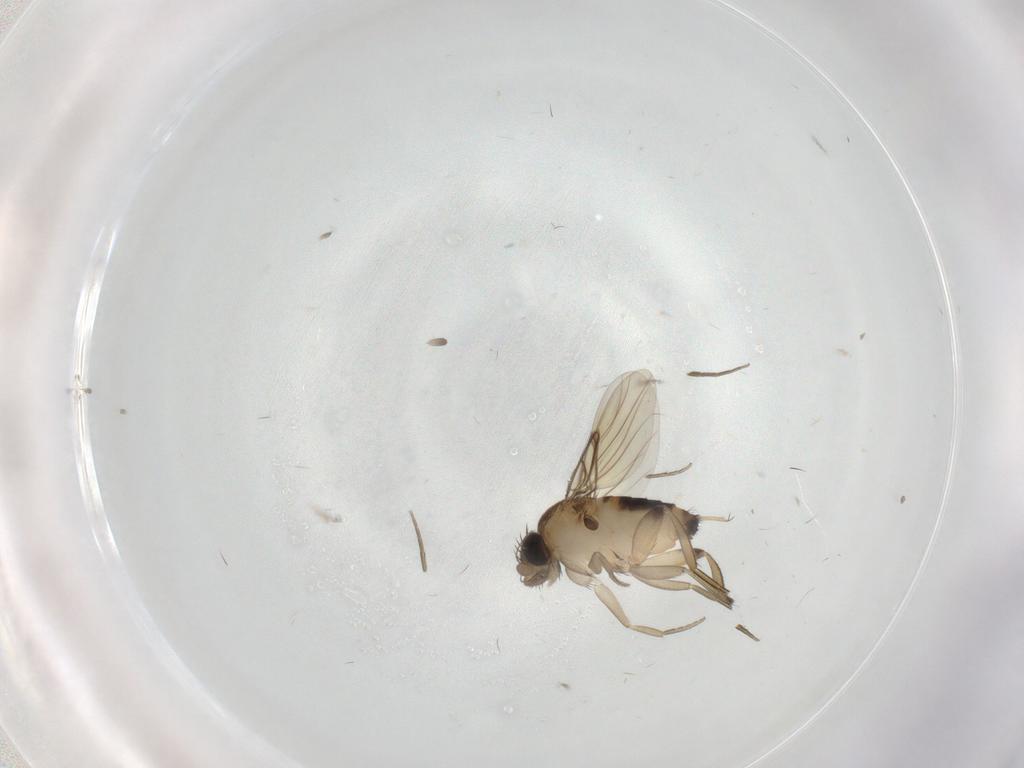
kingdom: Animalia
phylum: Arthropoda
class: Insecta
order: Diptera
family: Phoridae
